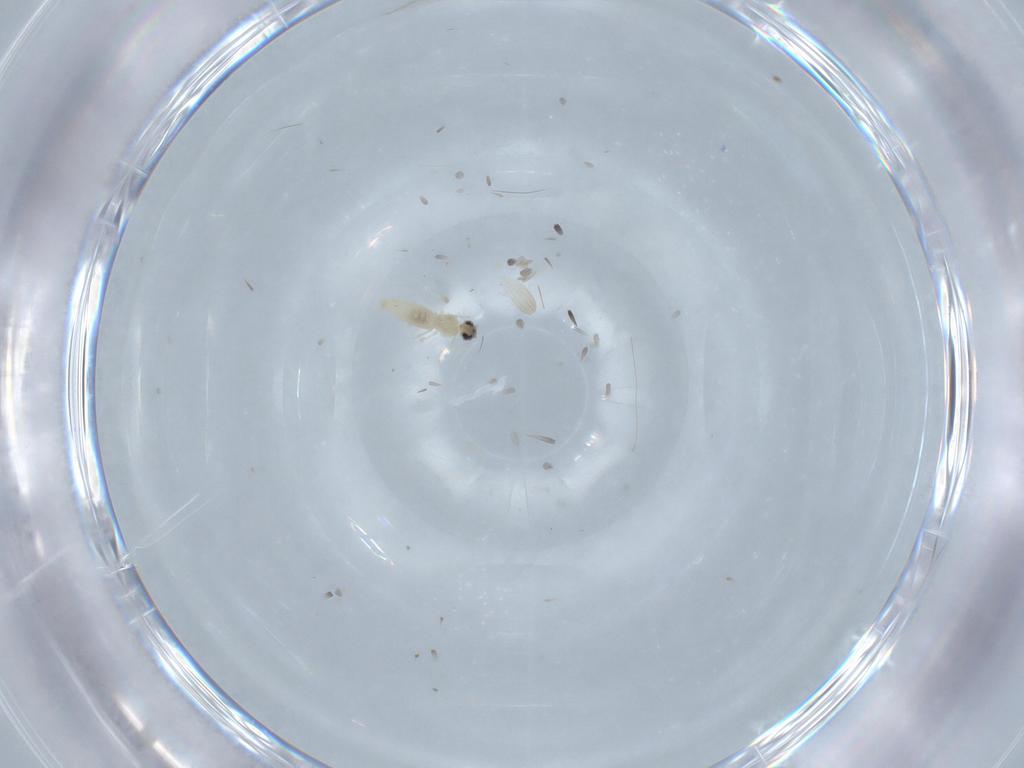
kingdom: Animalia
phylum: Arthropoda
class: Insecta
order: Diptera
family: Cecidomyiidae
